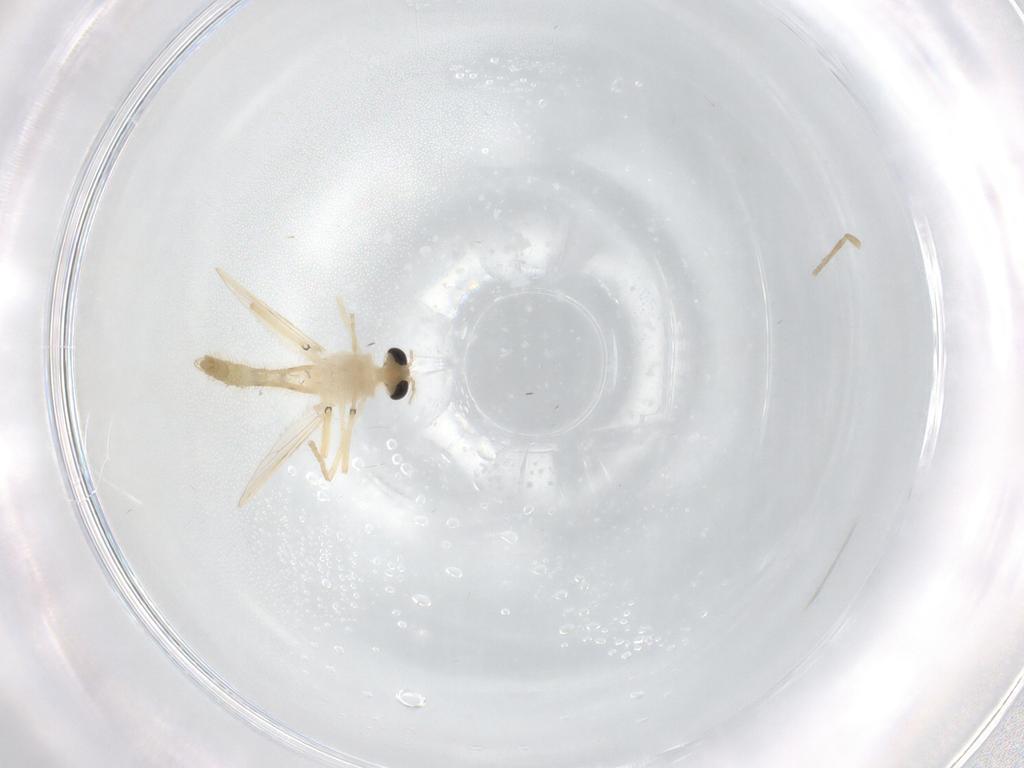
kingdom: Animalia
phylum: Arthropoda
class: Insecta
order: Diptera
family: Chironomidae
